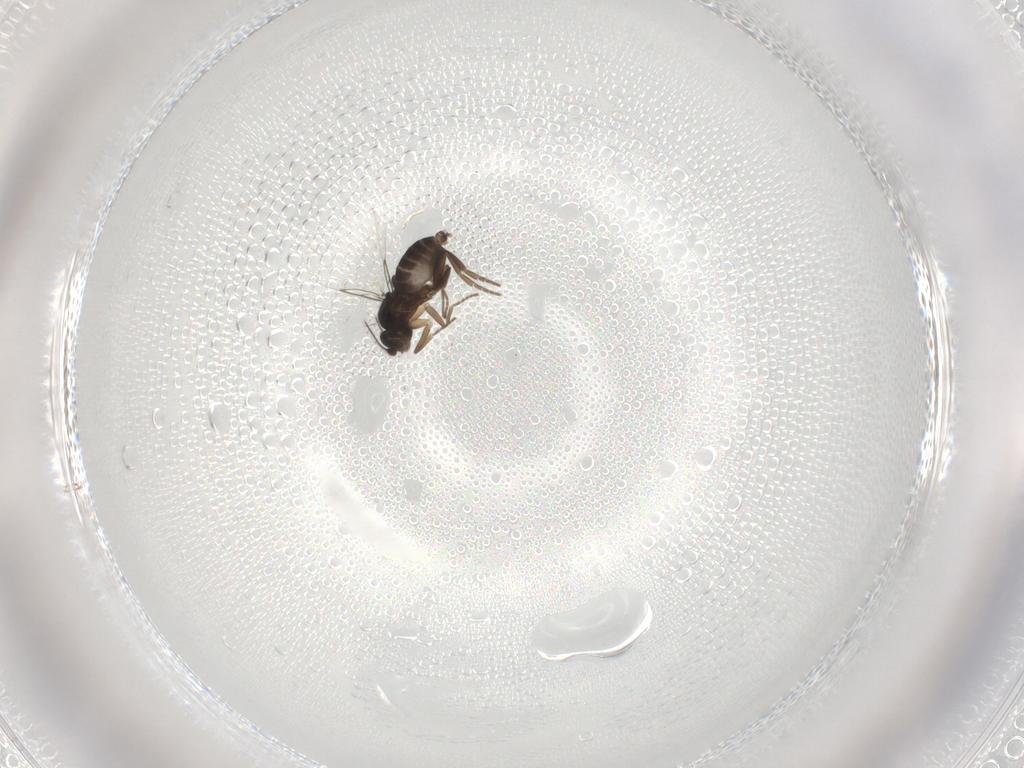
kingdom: Animalia
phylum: Arthropoda
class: Insecta
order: Diptera
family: Phoridae
